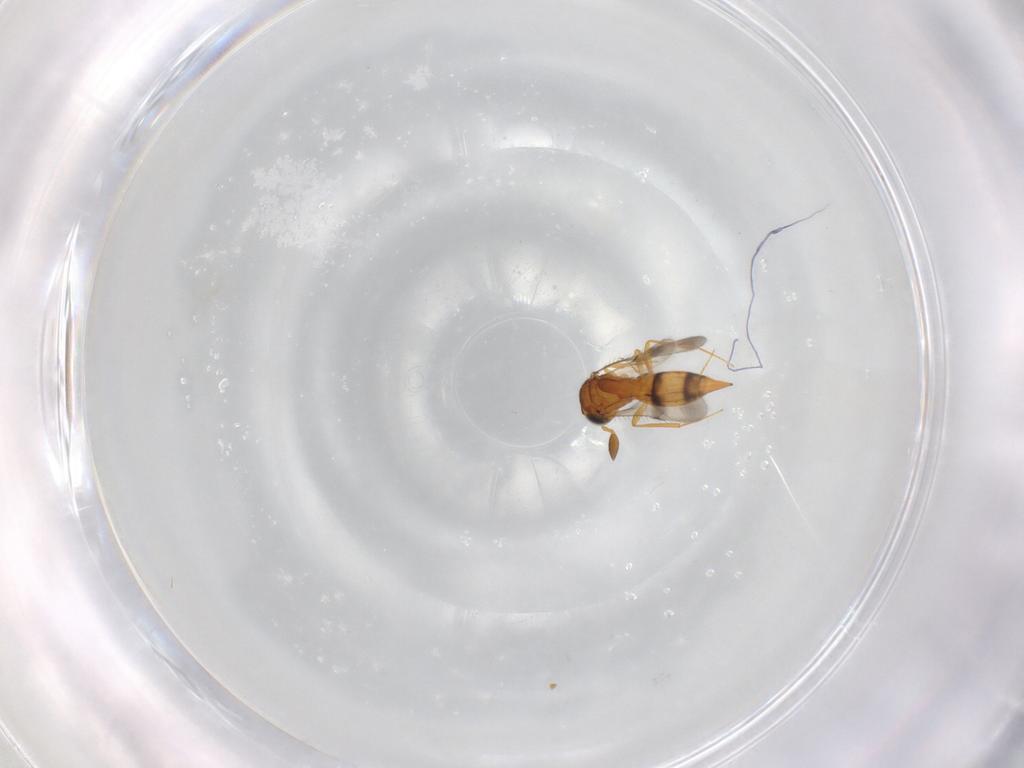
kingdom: Animalia
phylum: Arthropoda
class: Insecta
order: Hymenoptera
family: Scelionidae
